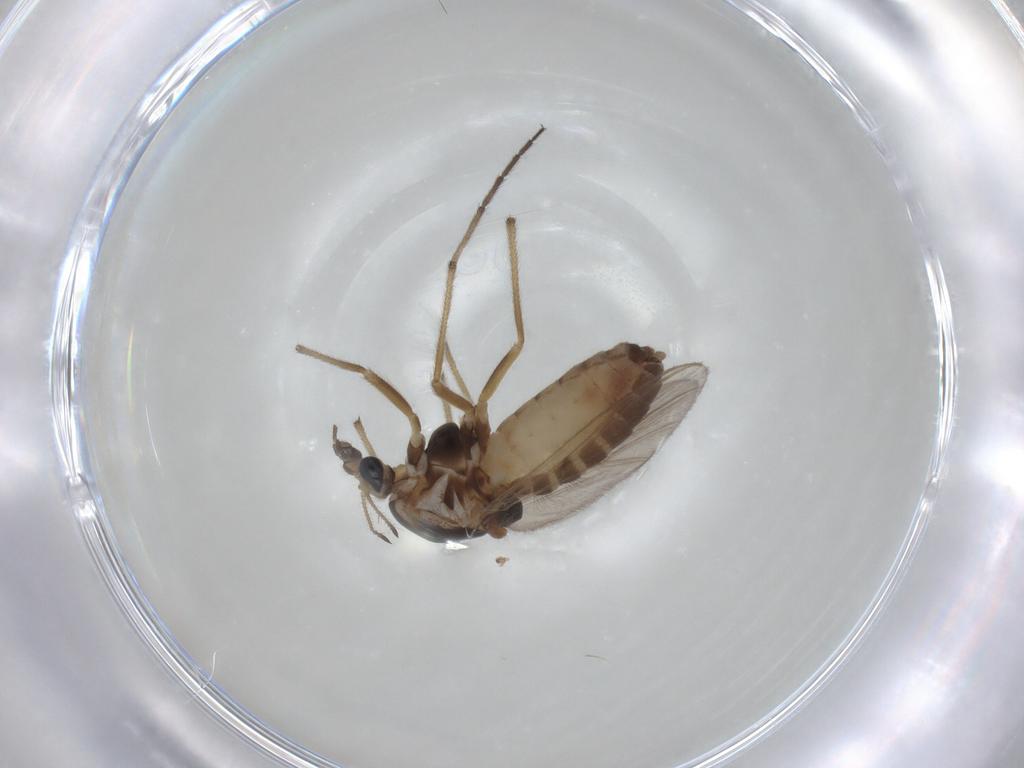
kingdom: Animalia
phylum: Arthropoda
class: Insecta
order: Diptera
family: Chironomidae
